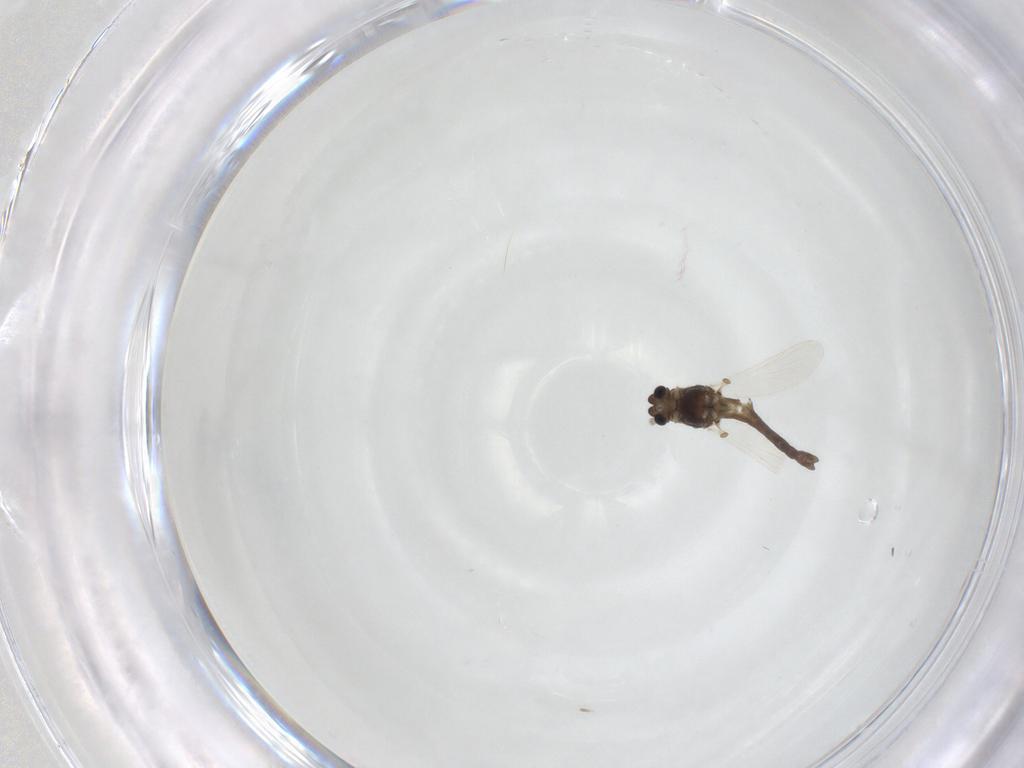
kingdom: Animalia
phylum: Arthropoda
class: Insecta
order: Diptera
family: Chironomidae
